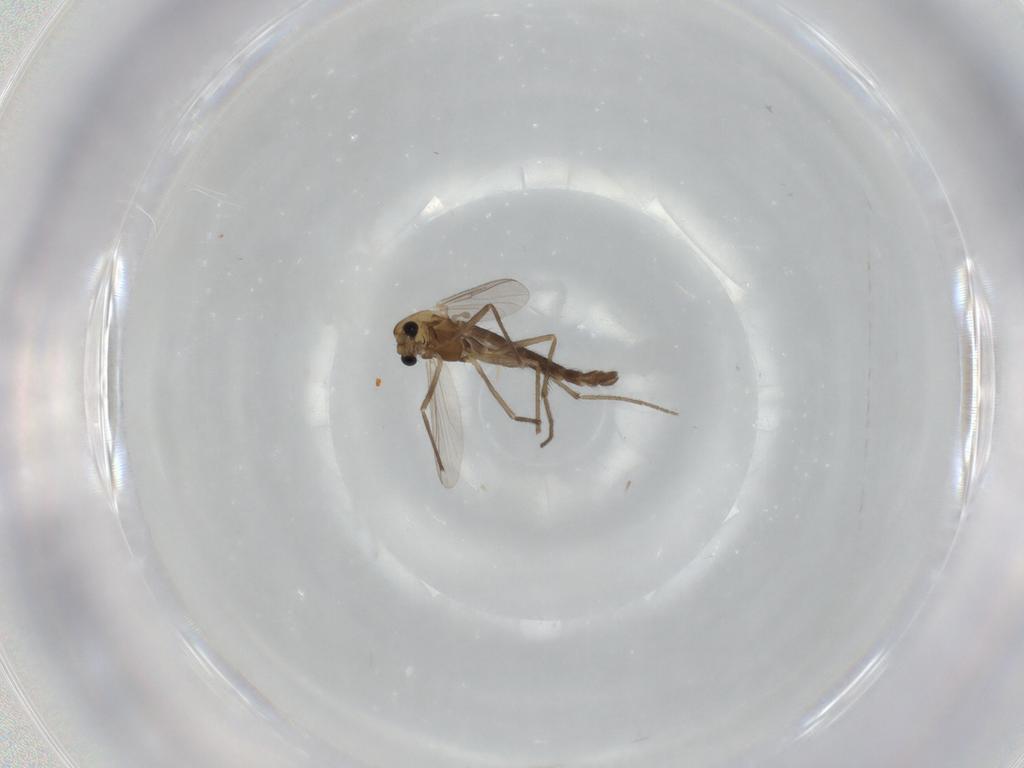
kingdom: Animalia
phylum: Arthropoda
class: Insecta
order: Diptera
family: Chironomidae
